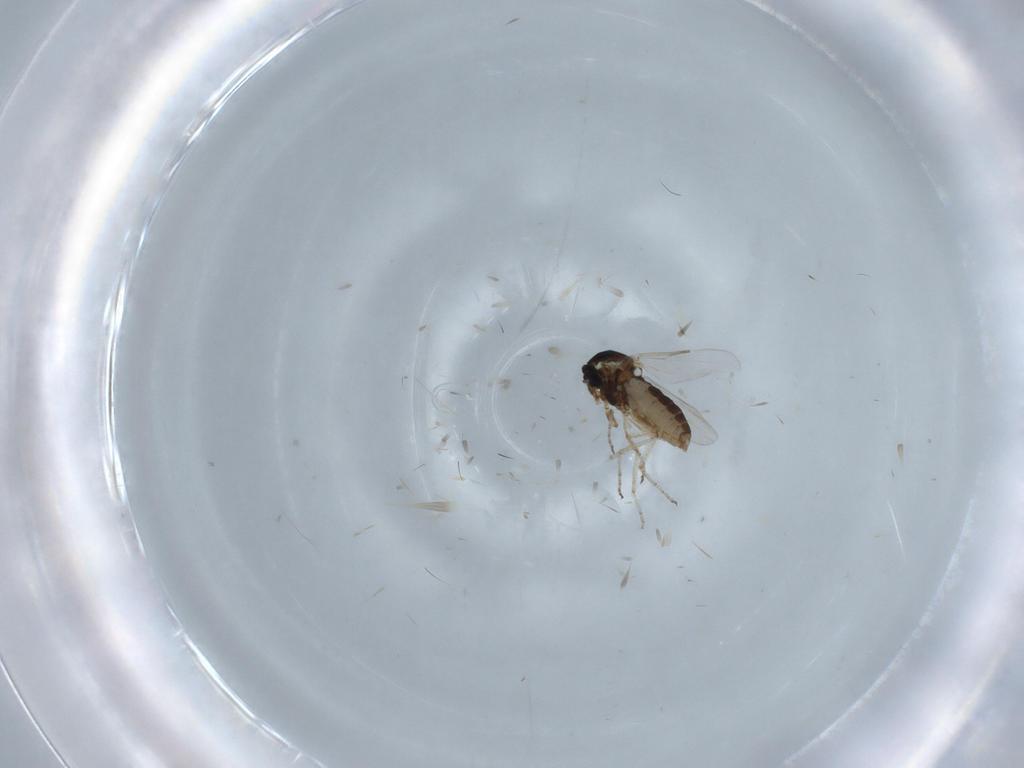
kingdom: Animalia
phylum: Arthropoda
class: Insecta
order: Diptera
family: Ceratopogonidae
